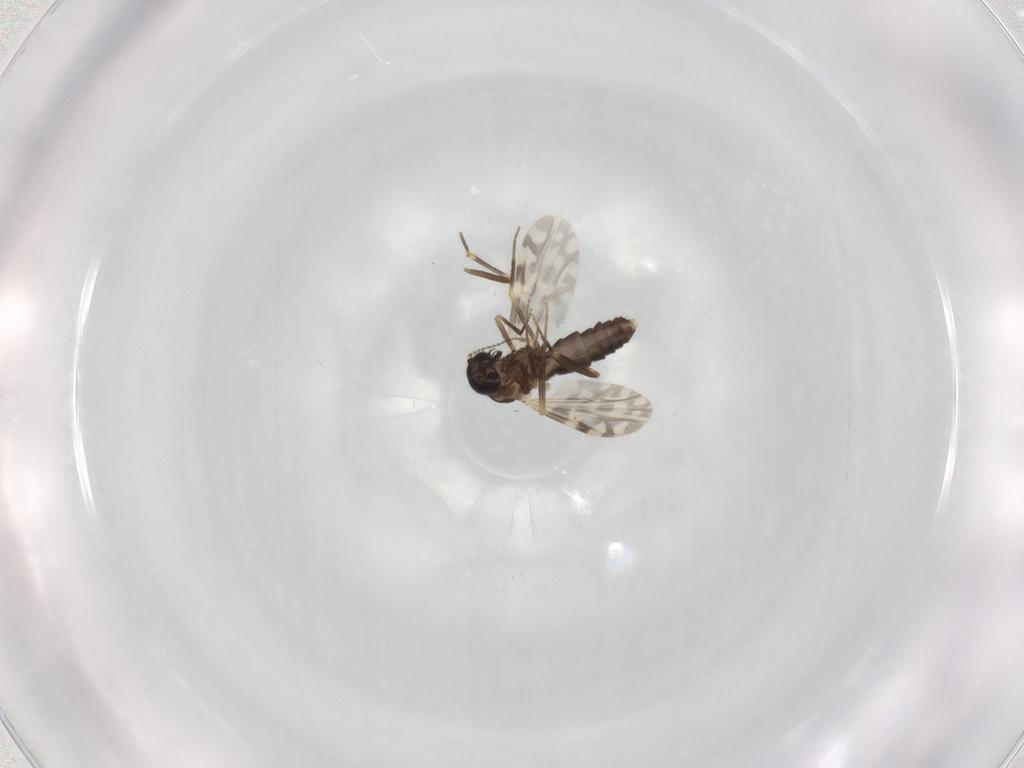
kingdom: Animalia
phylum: Arthropoda
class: Insecta
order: Diptera
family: Ceratopogonidae
